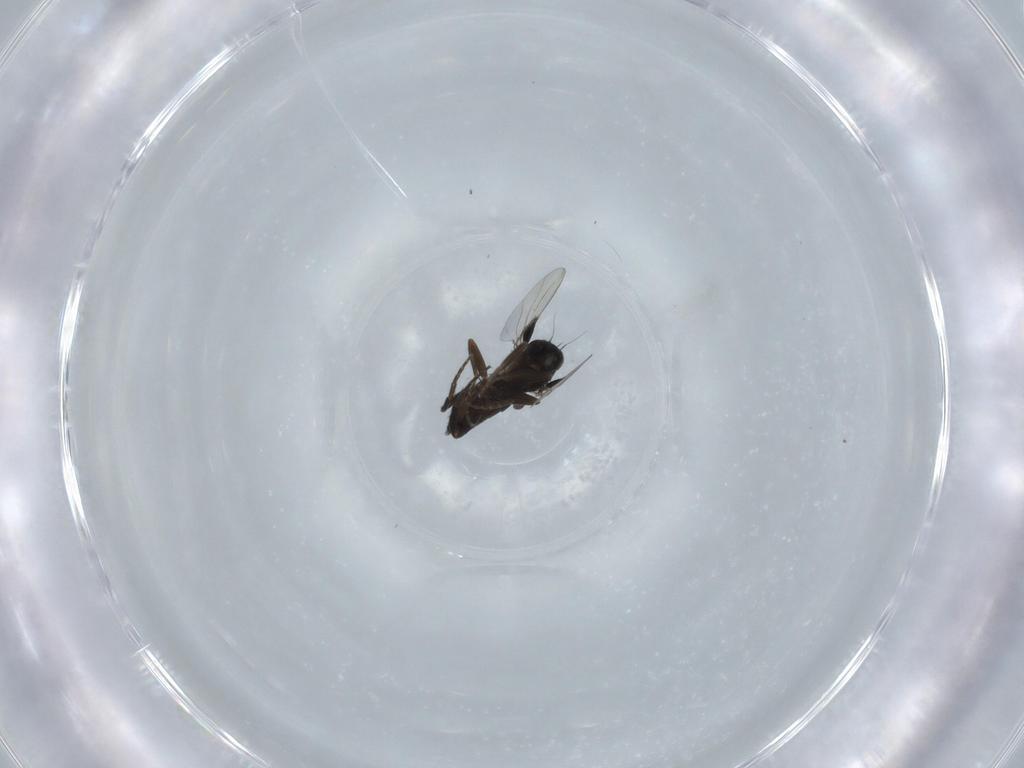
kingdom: Animalia
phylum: Arthropoda
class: Insecta
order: Diptera
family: Phoridae
